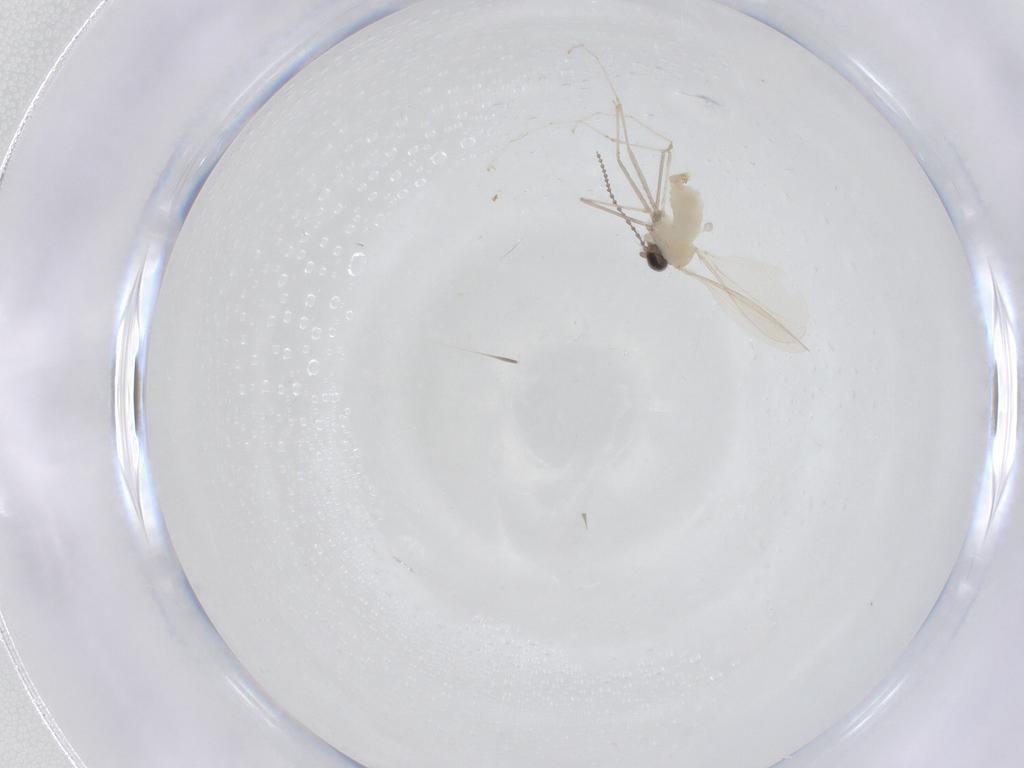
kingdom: Animalia
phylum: Arthropoda
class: Insecta
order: Diptera
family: Cecidomyiidae
